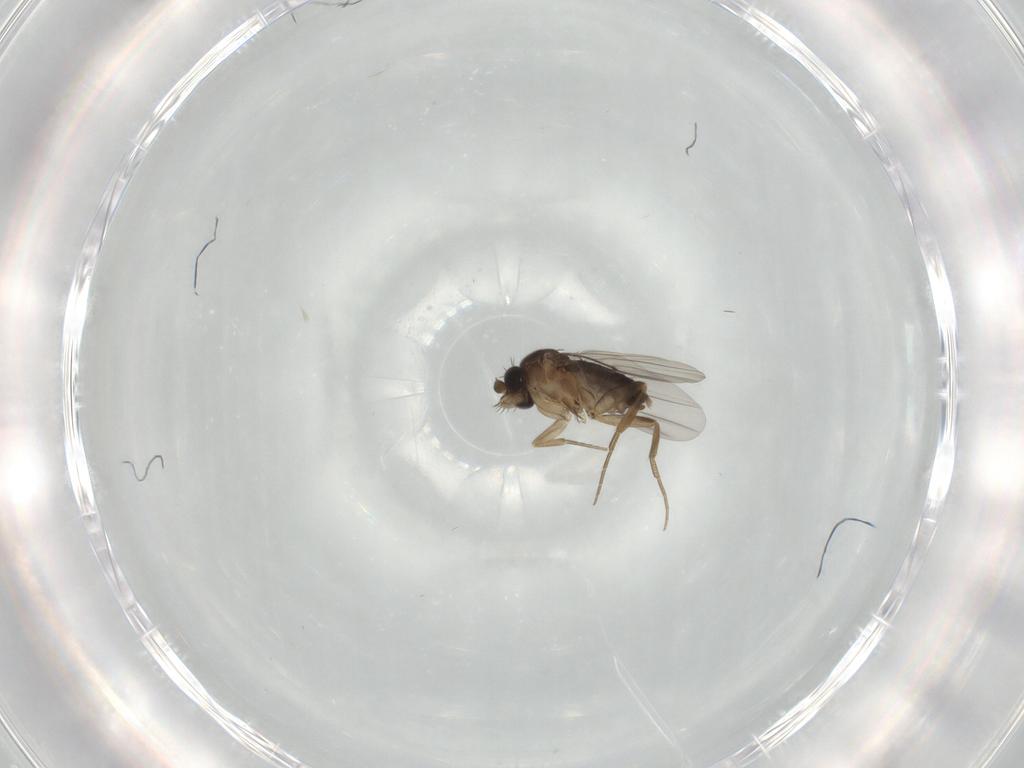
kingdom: Animalia
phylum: Arthropoda
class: Insecta
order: Diptera
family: Phoridae
